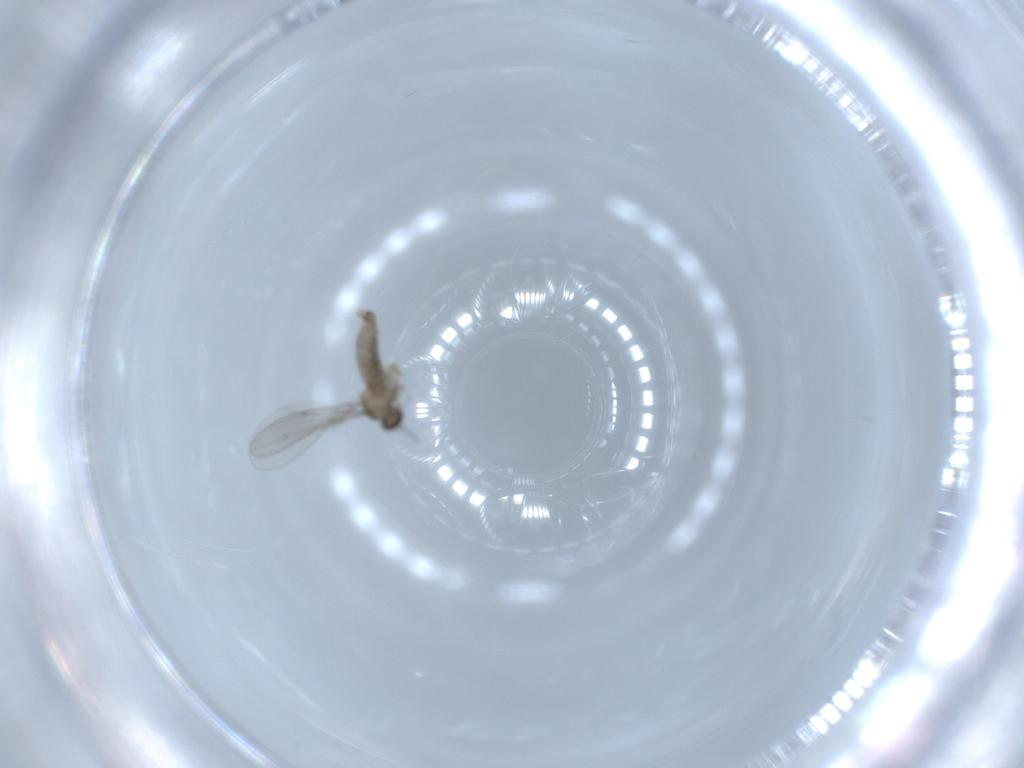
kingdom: Animalia
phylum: Arthropoda
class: Insecta
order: Diptera
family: Cecidomyiidae
